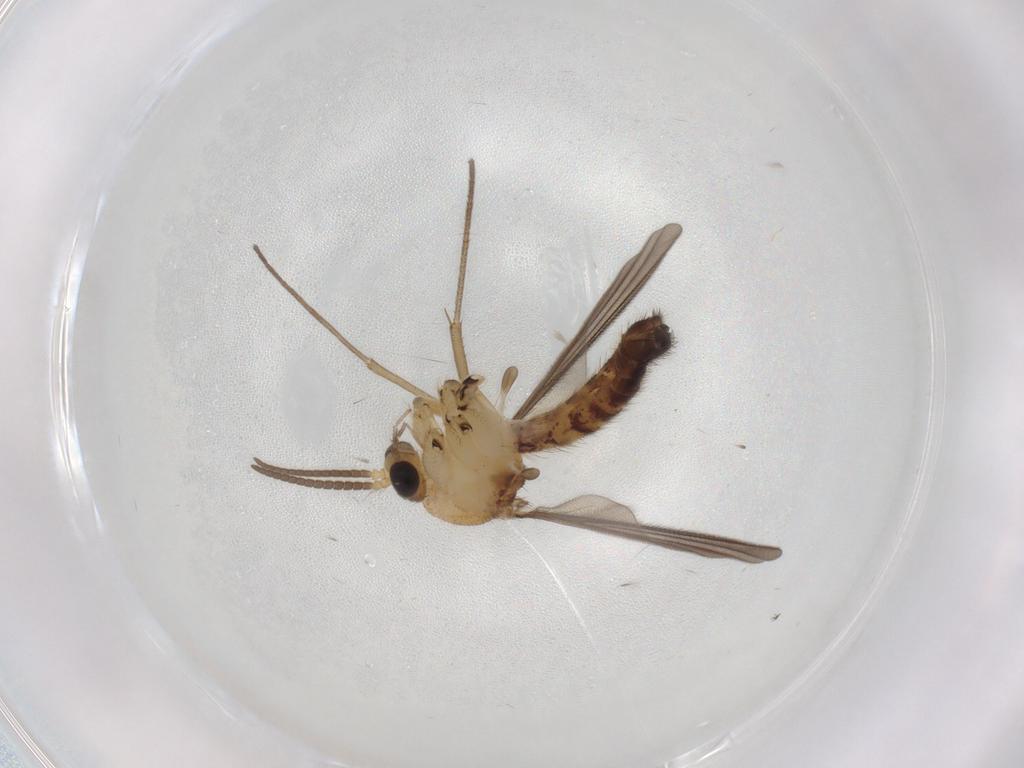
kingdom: Animalia
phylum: Arthropoda
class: Insecta
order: Diptera
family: Mycetophilidae
